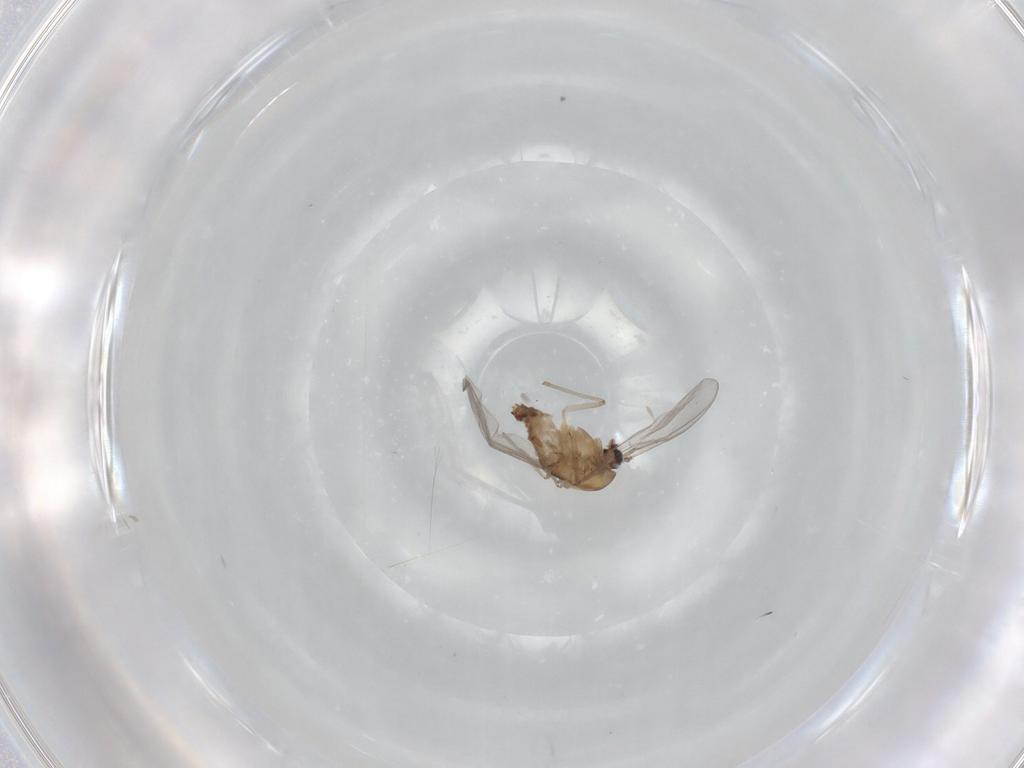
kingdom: Animalia
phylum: Arthropoda
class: Insecta
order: Diptera
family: Chironomidae
